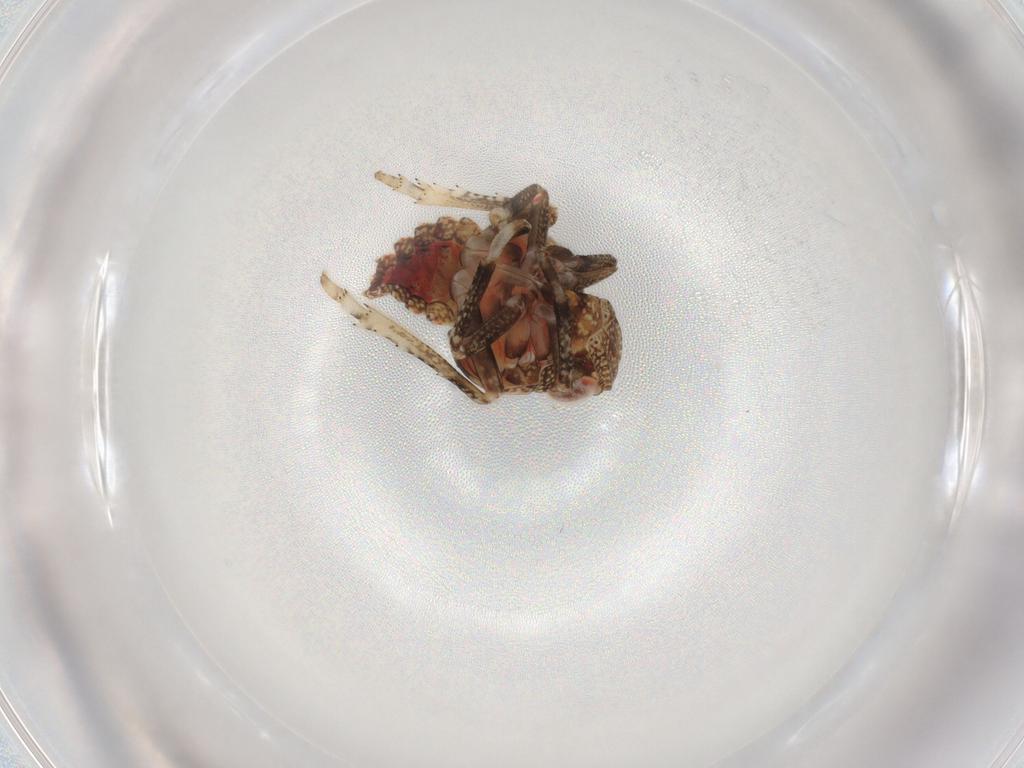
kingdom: Animalia
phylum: Arthropoda
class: Insecta
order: Hemiptera
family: Tropiduchidae
